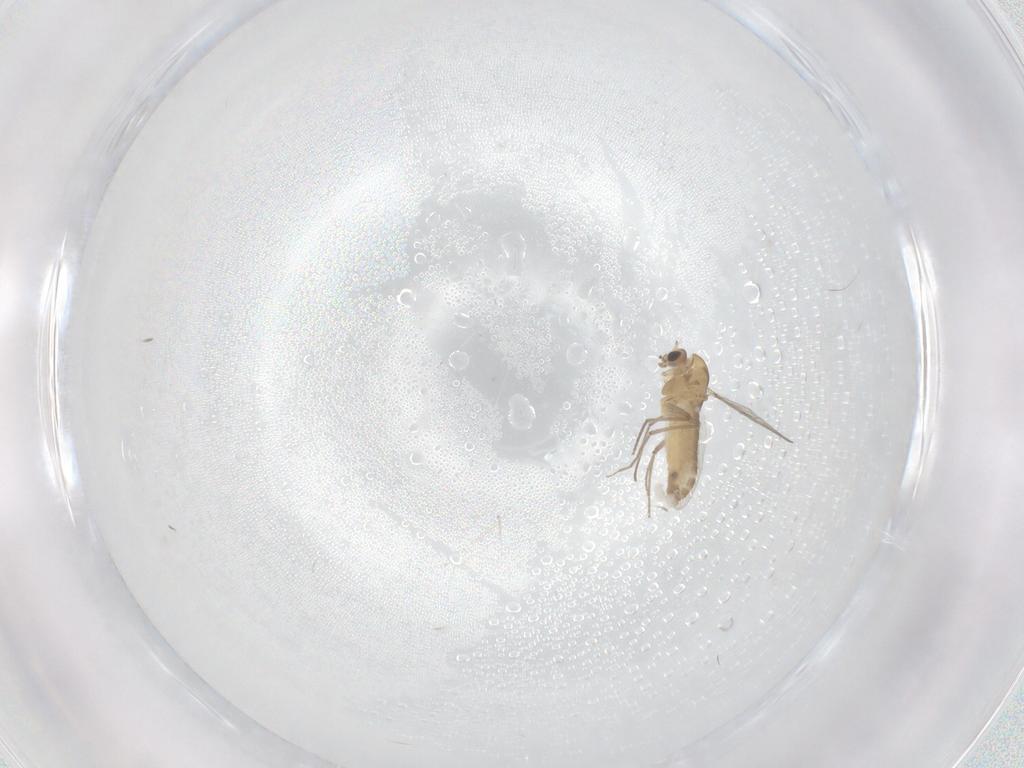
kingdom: Animalia
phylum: Arthropoda
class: Insecta
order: Diptera
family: Chironomidae
